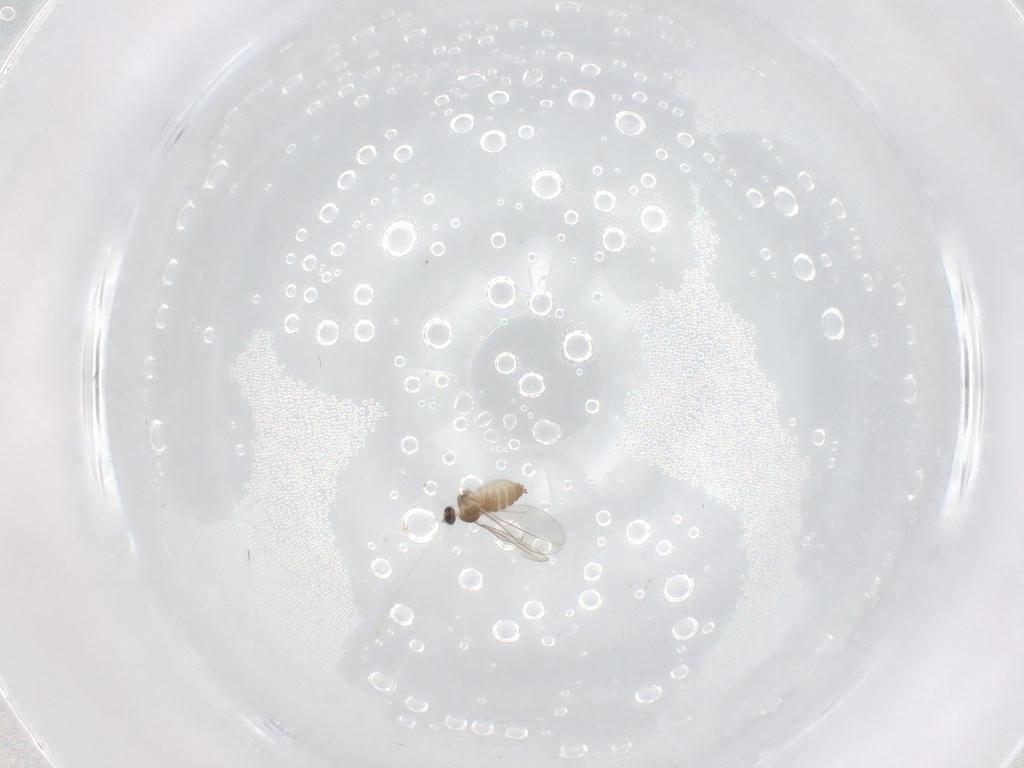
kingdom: Animalia
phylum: Arthropoda
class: Insecta
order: Diptera
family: Cecidomyiidae
